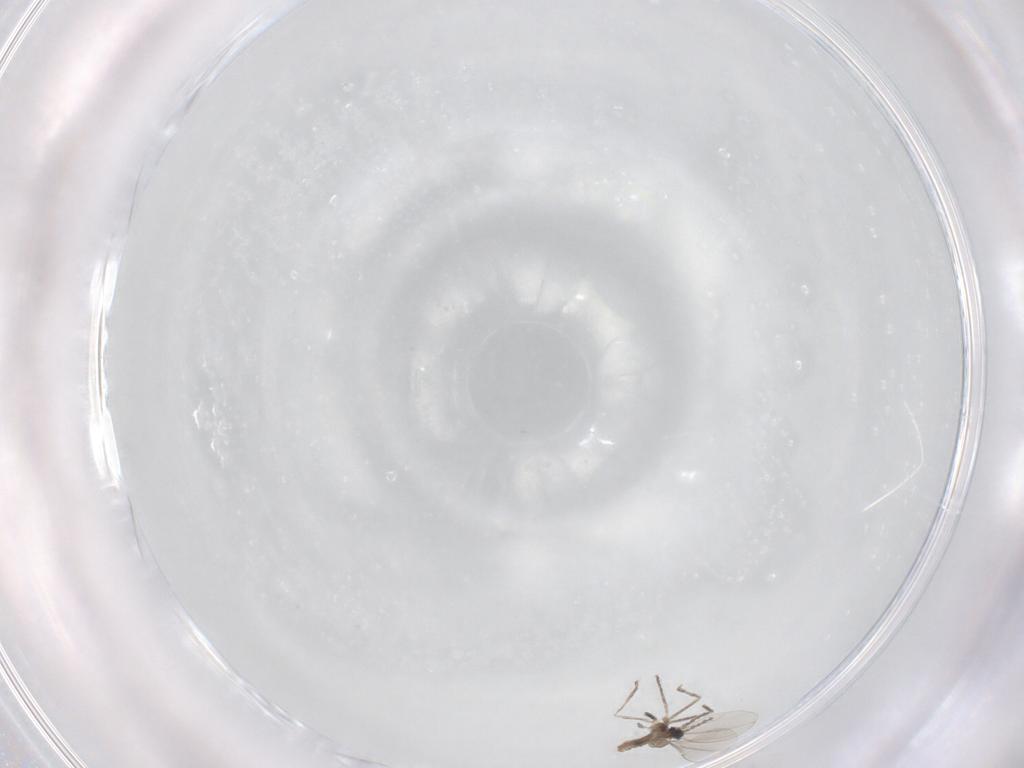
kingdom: Animalia
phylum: Arthropoda
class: Insecta
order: Diptera
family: Cecidomyiidae
